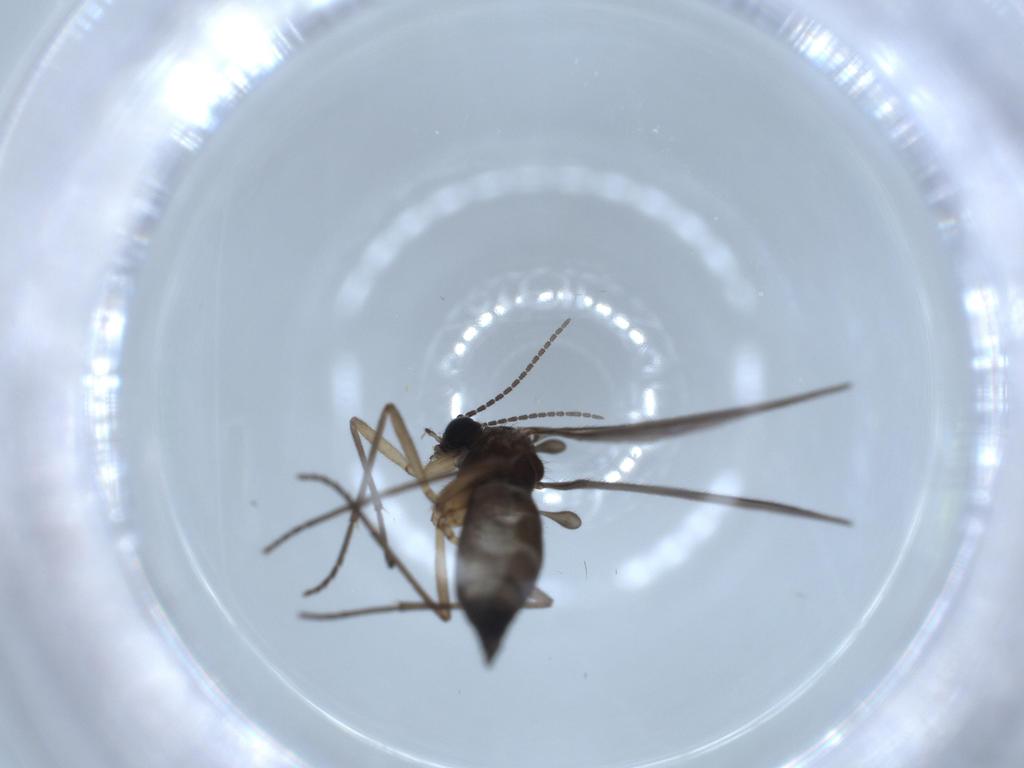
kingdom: Animalia
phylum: Arthropoda
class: Insecta
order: Diptera
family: Sciaridae
